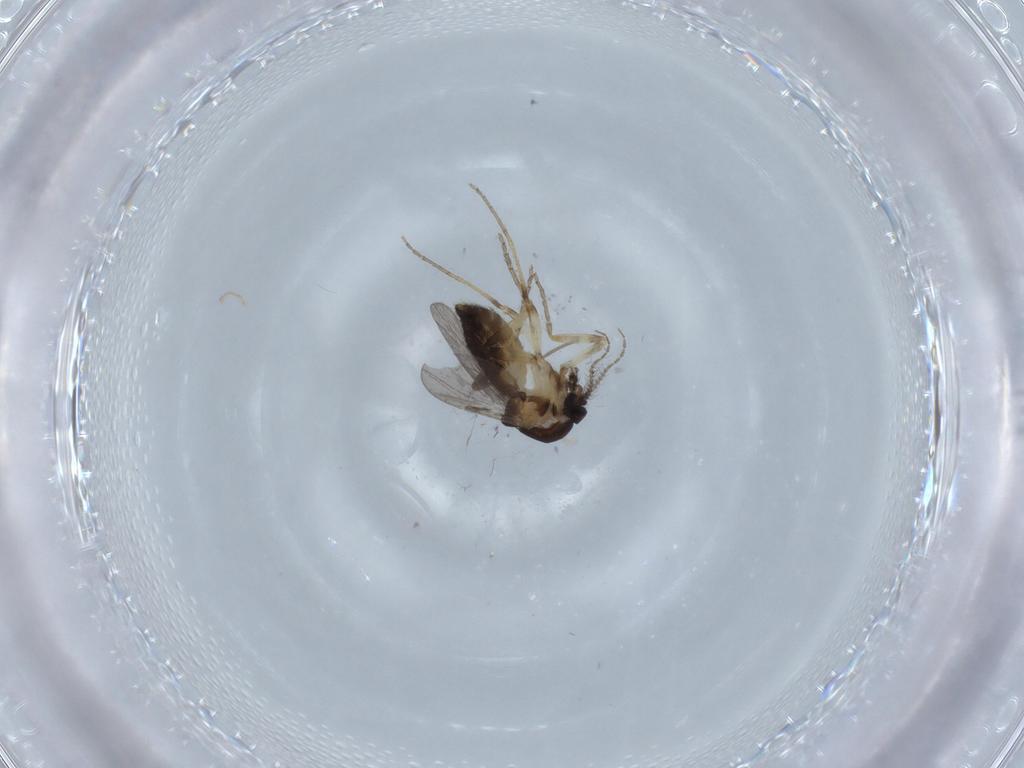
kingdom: Animalia
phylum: Arthropoda
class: Insecta
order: Diptera
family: Ceratopogonidae
